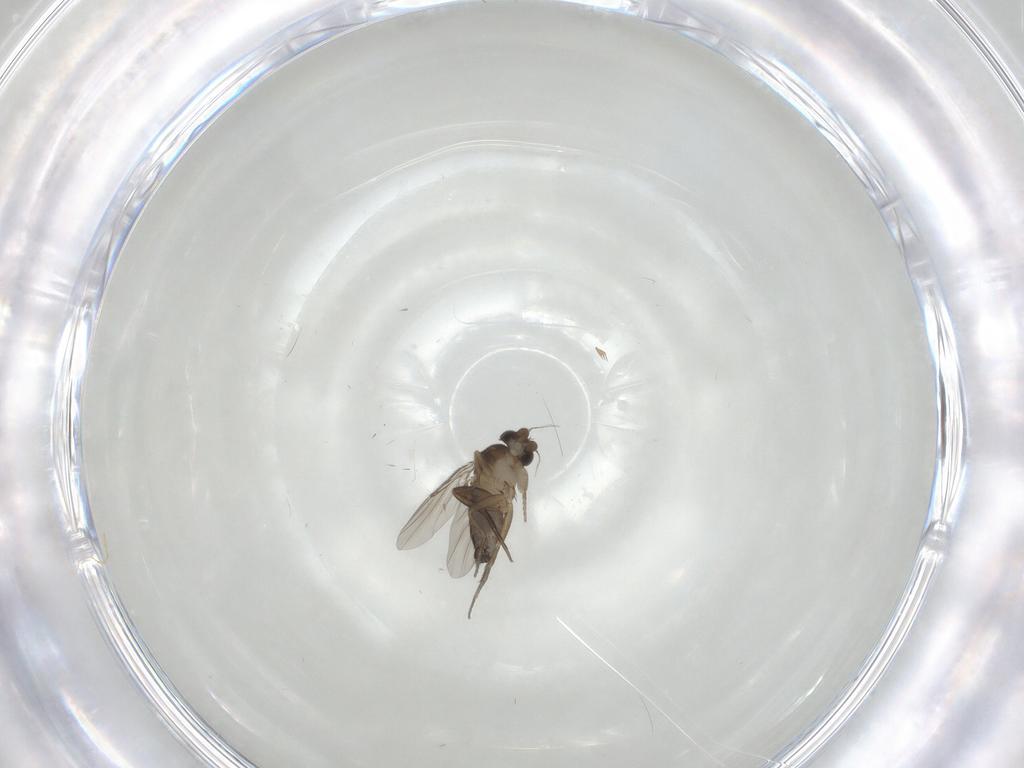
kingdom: Animalia
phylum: Arthropoda
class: Insecta
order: Diptera
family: Phoridae
